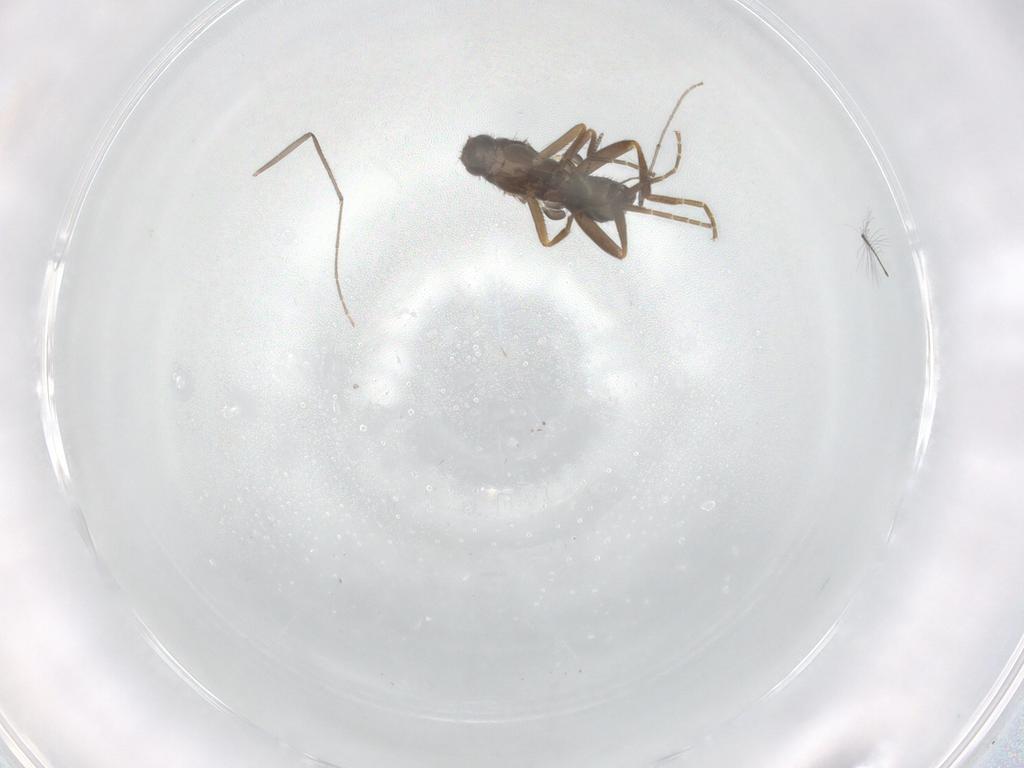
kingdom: Animalia
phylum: Arthropoda
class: Insecta
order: Diptera
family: Chironomidae
